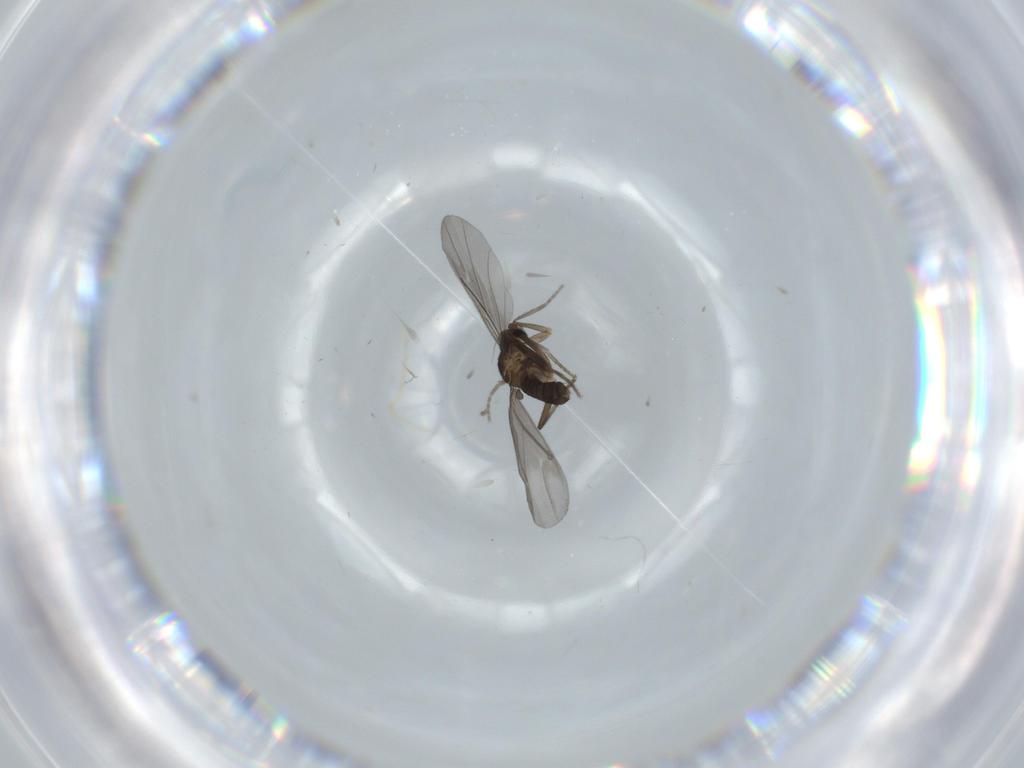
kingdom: Animalia
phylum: Arthropoda
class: Insecta
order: Diptera
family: Phoridae
